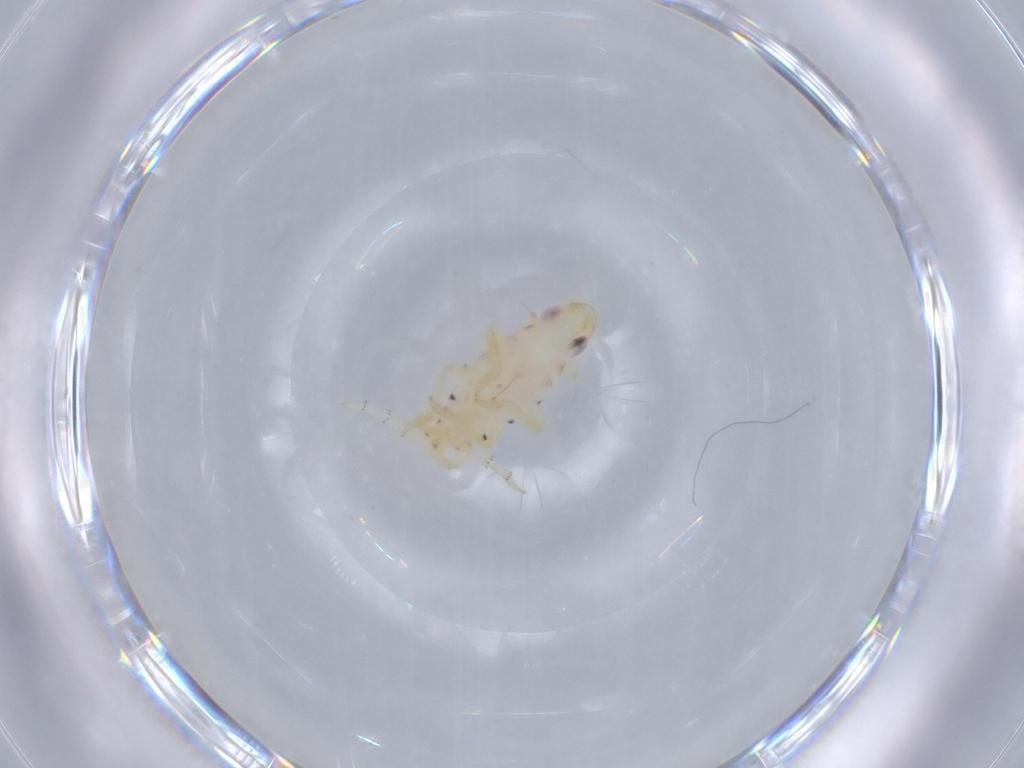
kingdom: Animalia
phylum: Arthropoda
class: Insecta
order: Hemiptera
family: Tropiduchidae
